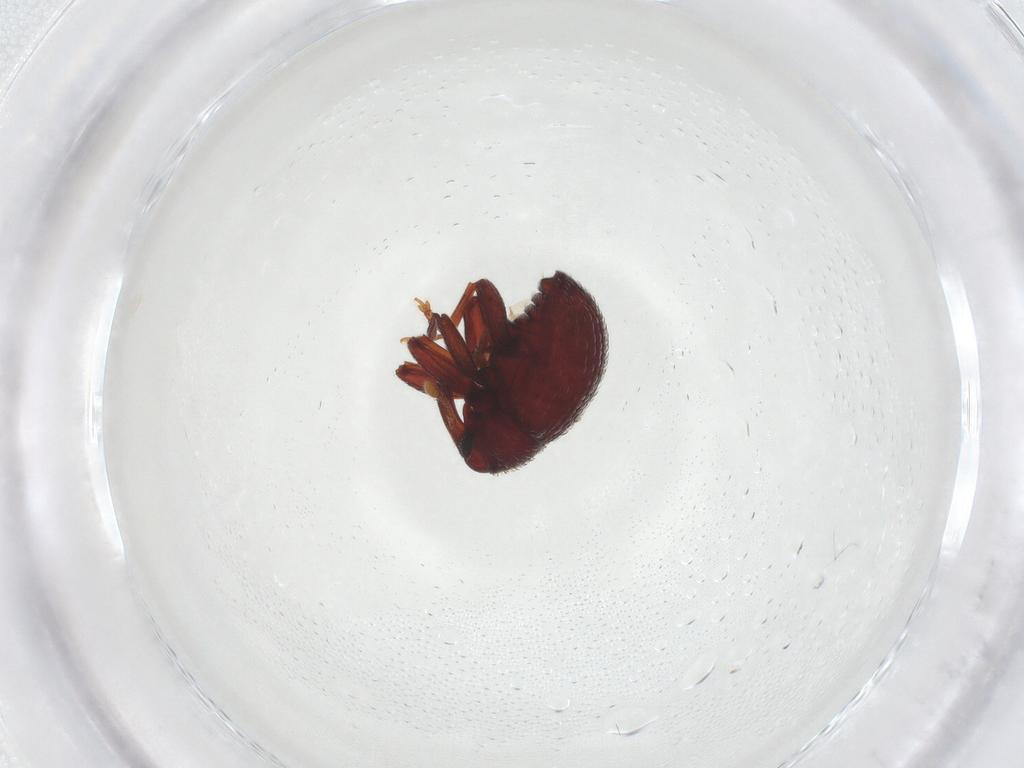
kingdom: Animalia
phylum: Arthropoda
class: Insecta
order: Coleoptera
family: Curculionidae
